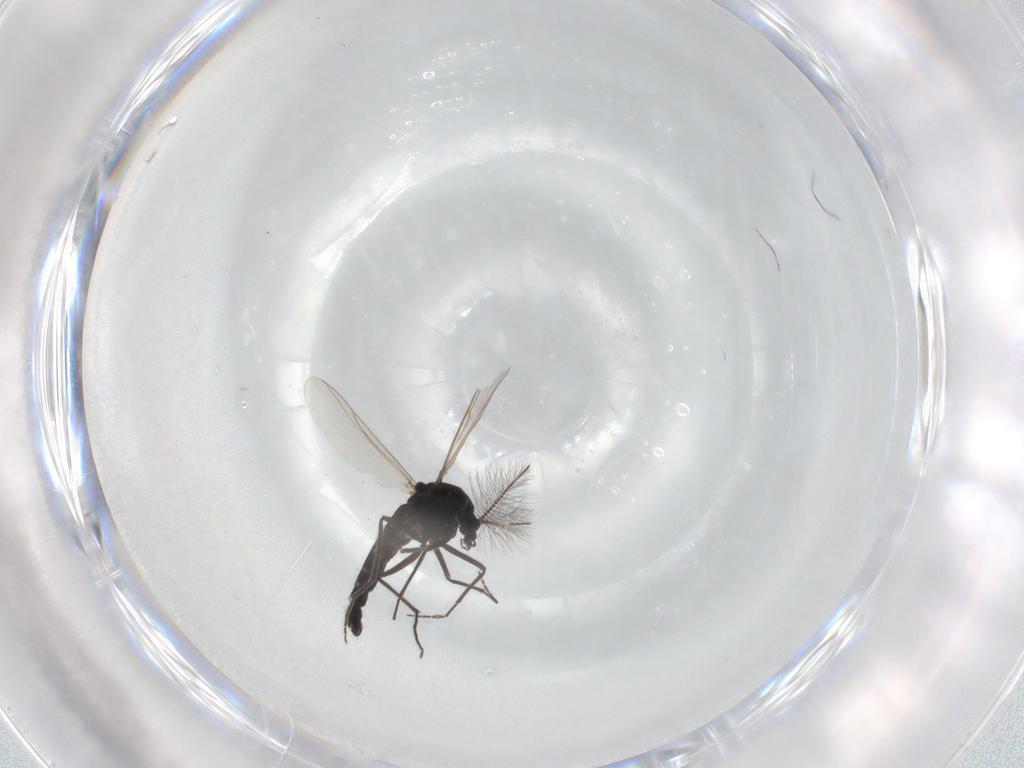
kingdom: Animalia
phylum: Arthropoda
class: Insecta
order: Diptera
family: Chironomidae
